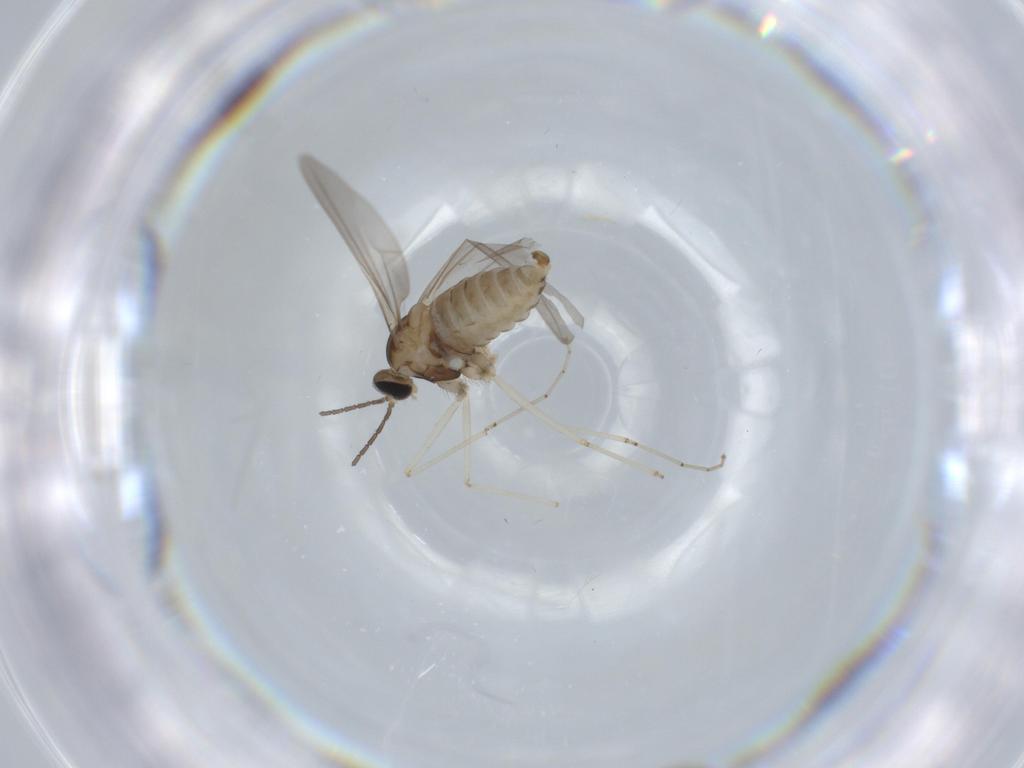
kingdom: Animalia
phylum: Arthropoda
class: Insecta
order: Diptera
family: Cecidomyiidae
